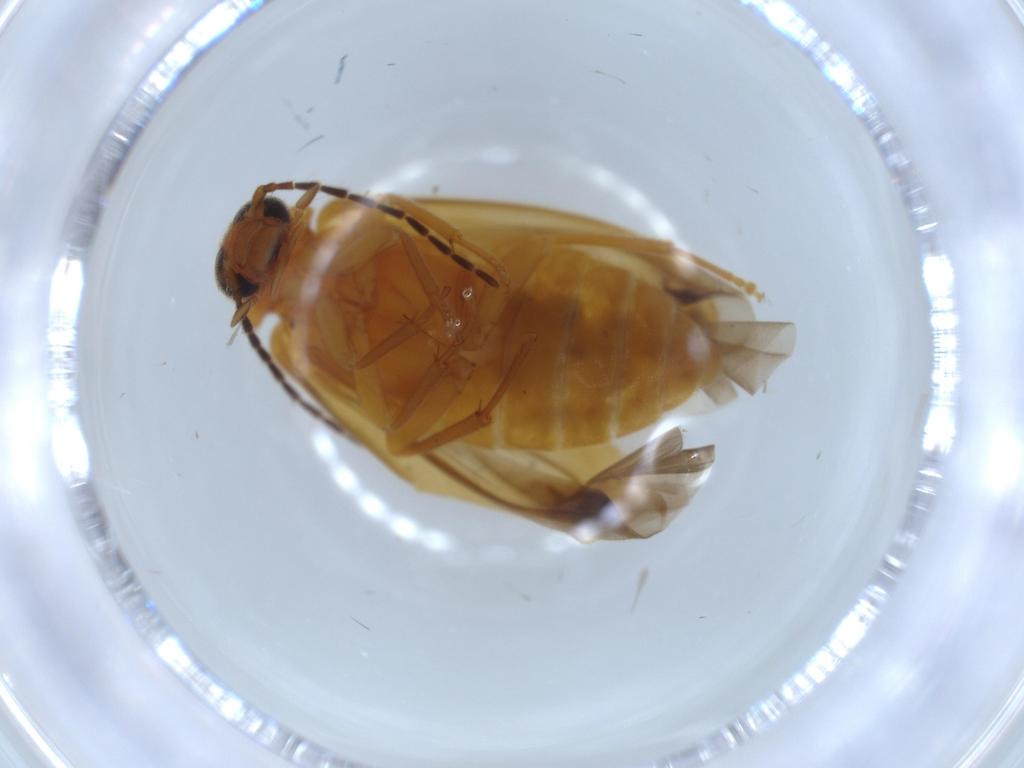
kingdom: Animalia
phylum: Arthropoda
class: Insecta
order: Coleoptera
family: Scraptiidae
